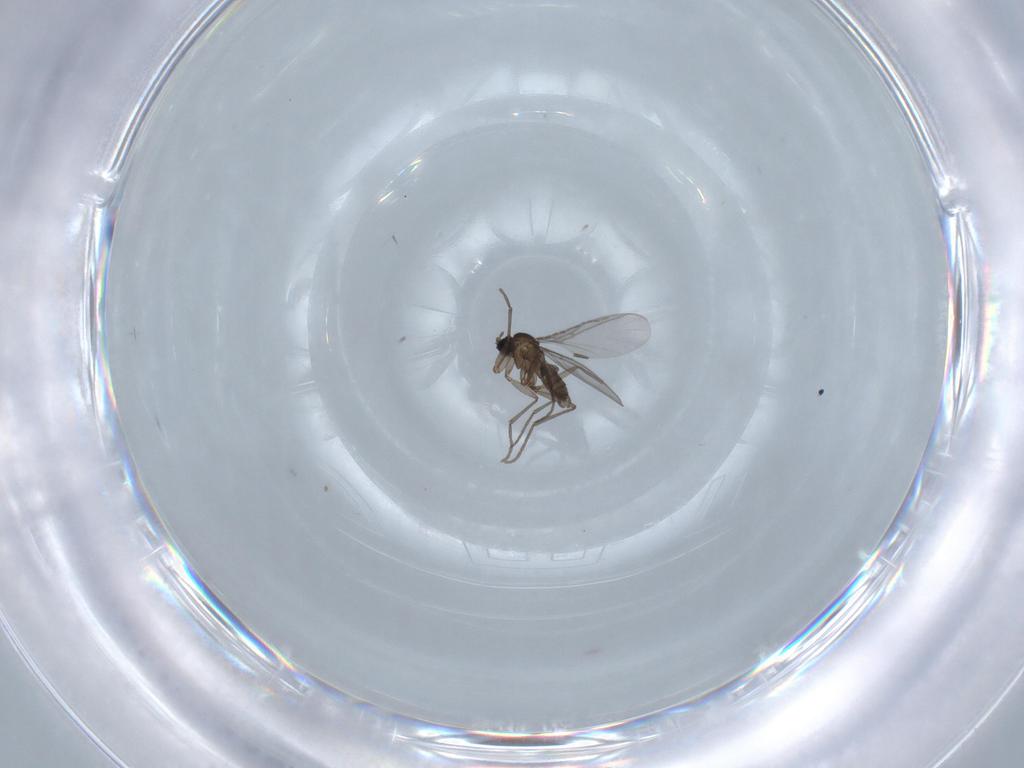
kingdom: Animalia
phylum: Arthropoda
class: Insecta
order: Diptera
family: Sciaridae
